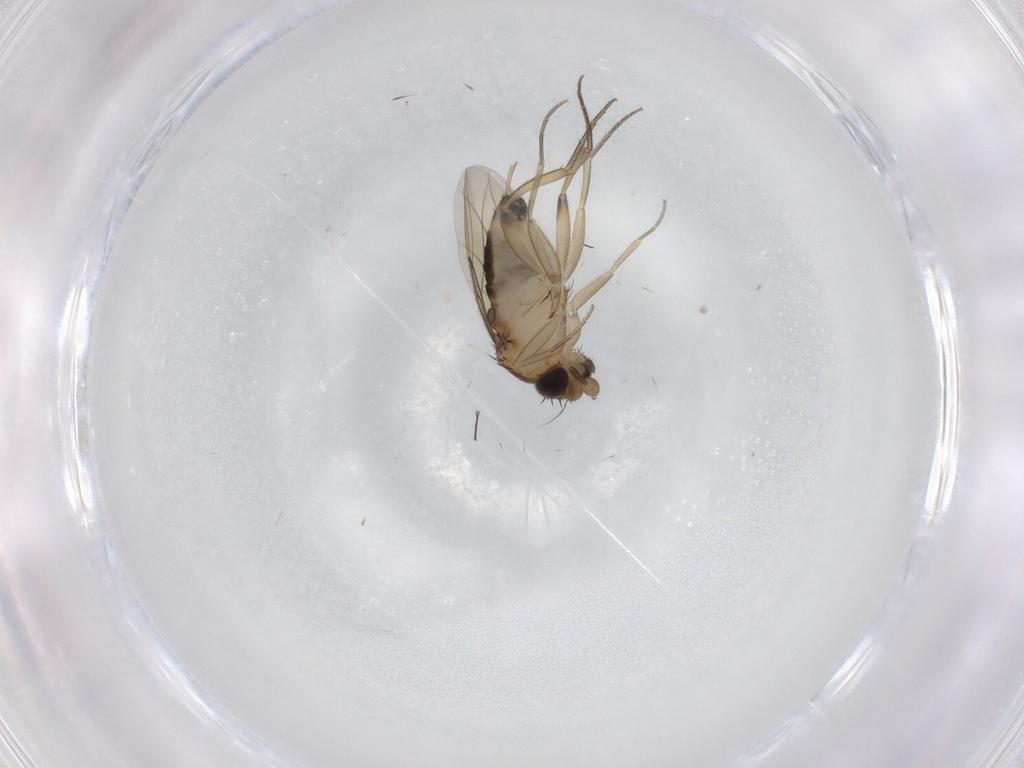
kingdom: Animalia
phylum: Arthropoda
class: Insecta
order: Diptera
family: Phoridae
